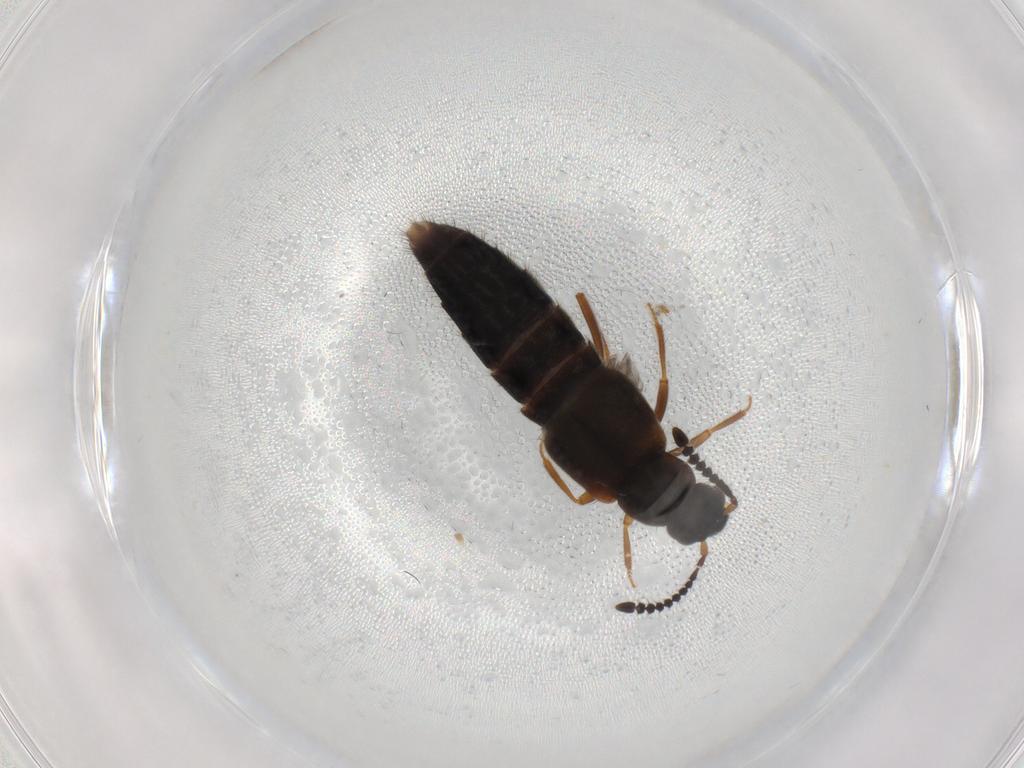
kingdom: Animalia
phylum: Arthropoda
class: Insecta
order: Coleoptera
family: Staphylinidae
